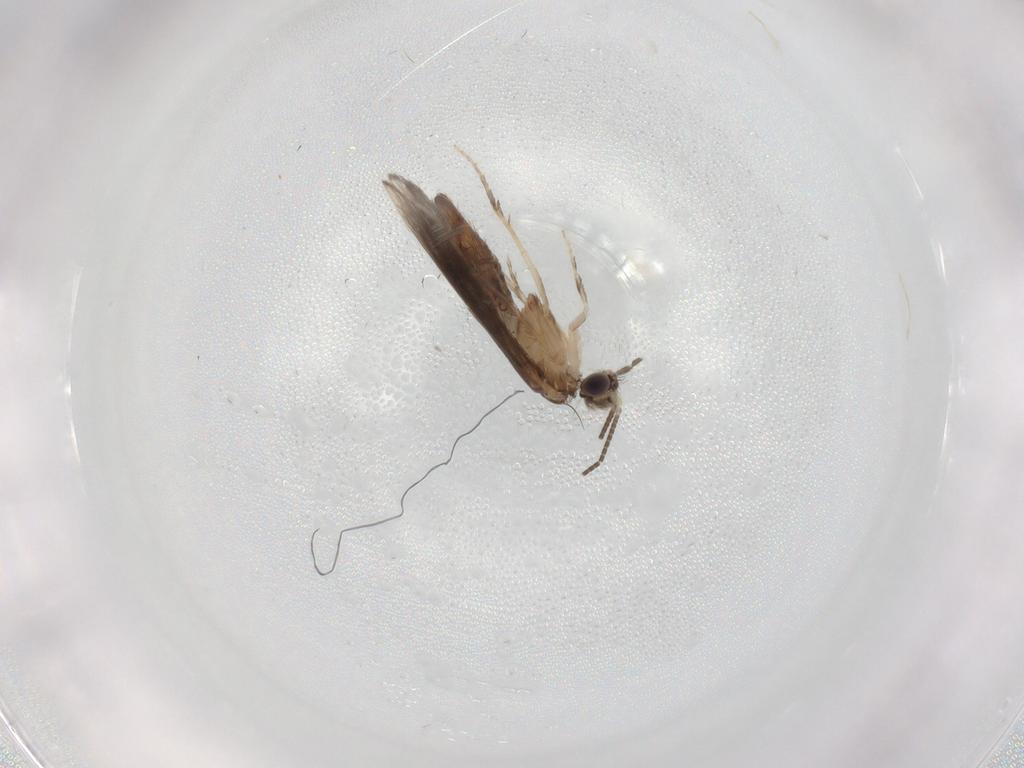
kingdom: Animalia
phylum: Arthropoda
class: Insecta
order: Trichoptera
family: Hydroptilidae
